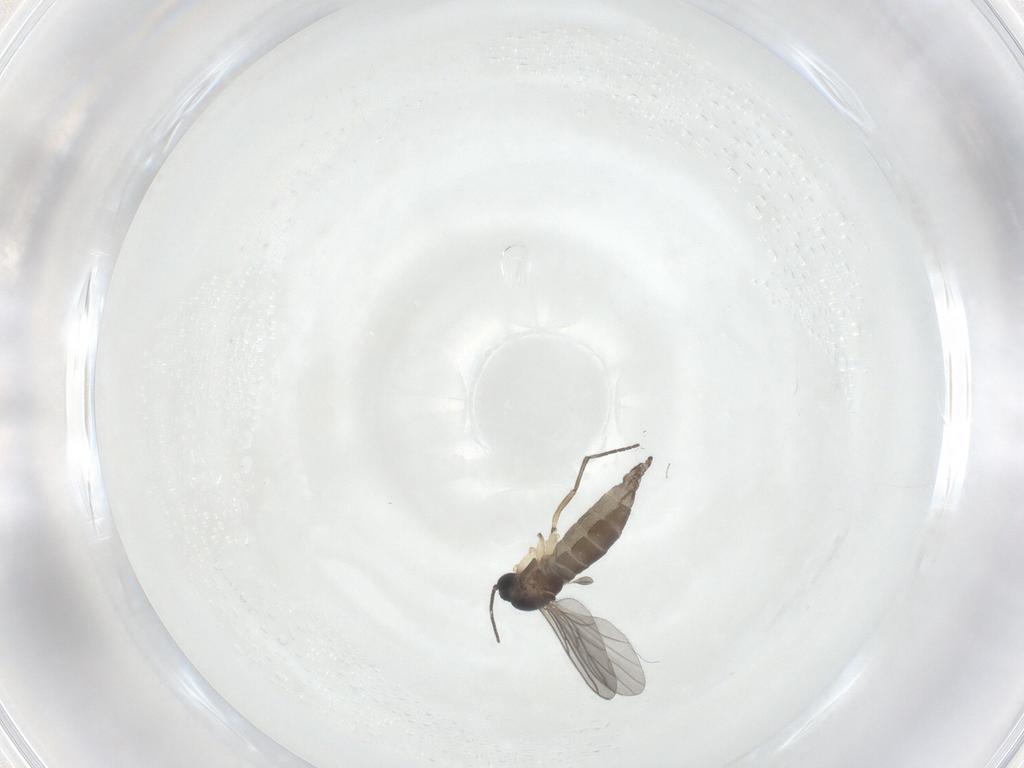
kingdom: Animalia
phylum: Arthropoda
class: Insecta
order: Diptera
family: Sciaridae
